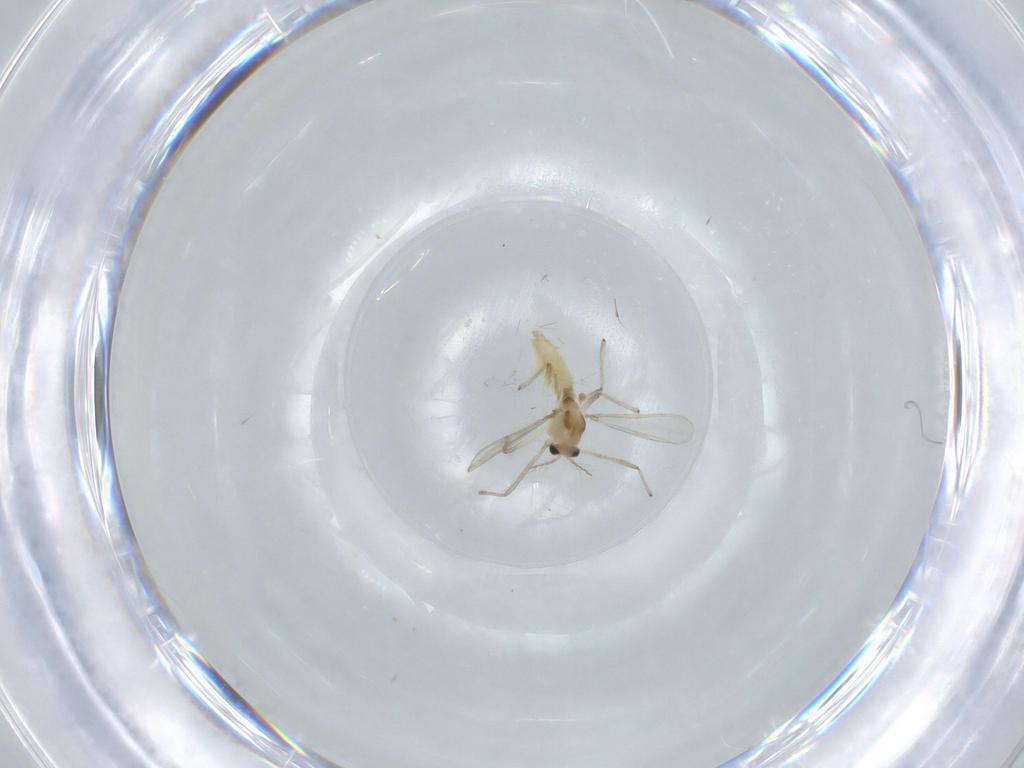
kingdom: Animalia
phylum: Arthropoda
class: Insecta
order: Diptera
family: Chironomidae
